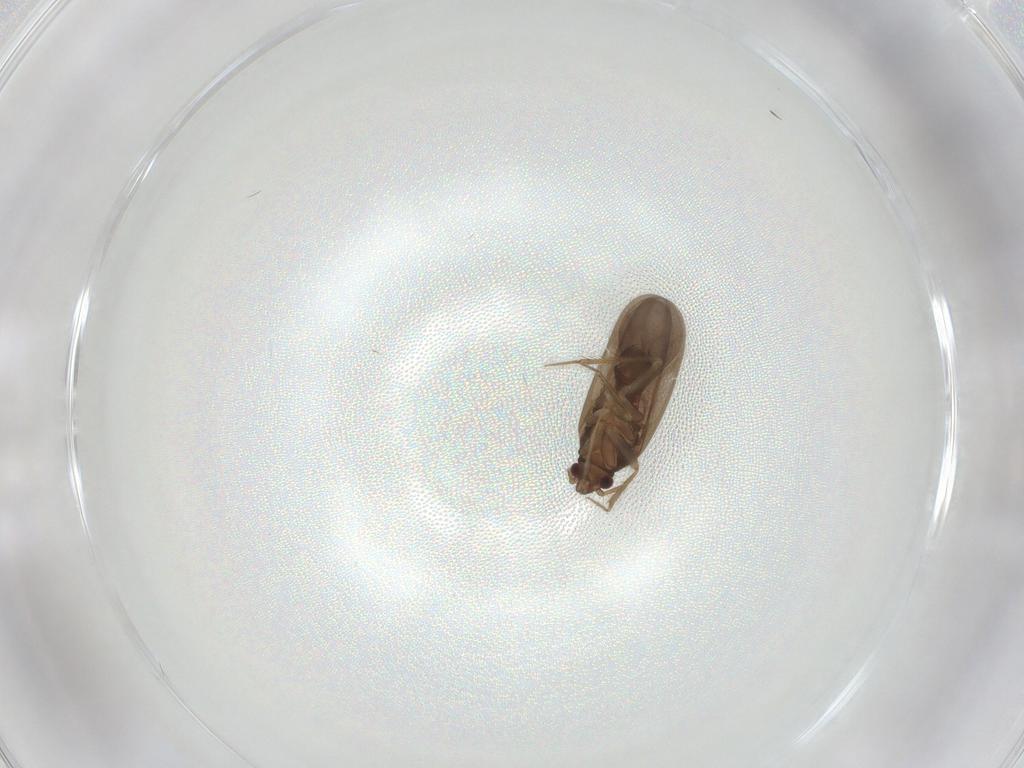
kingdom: Animalia
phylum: Arthropoda
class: Insecta
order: Hemiptera
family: Ceratocombidae
